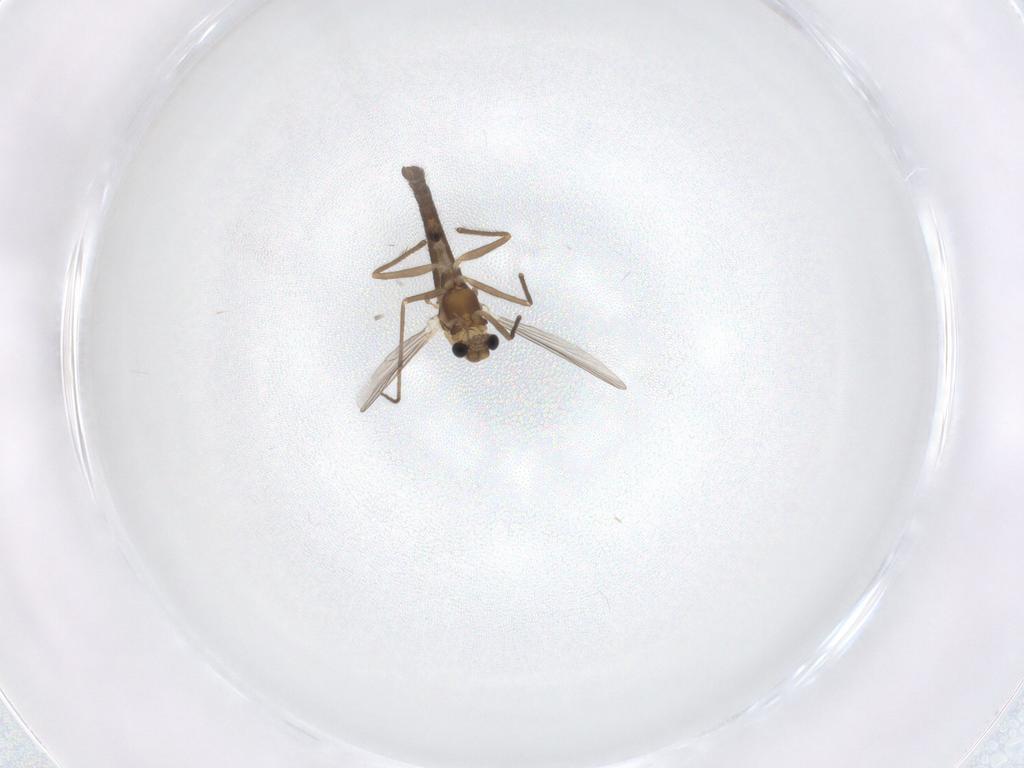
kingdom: Animalia
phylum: Arthropoda
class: Insecta
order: Diptera
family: Chironomidae
